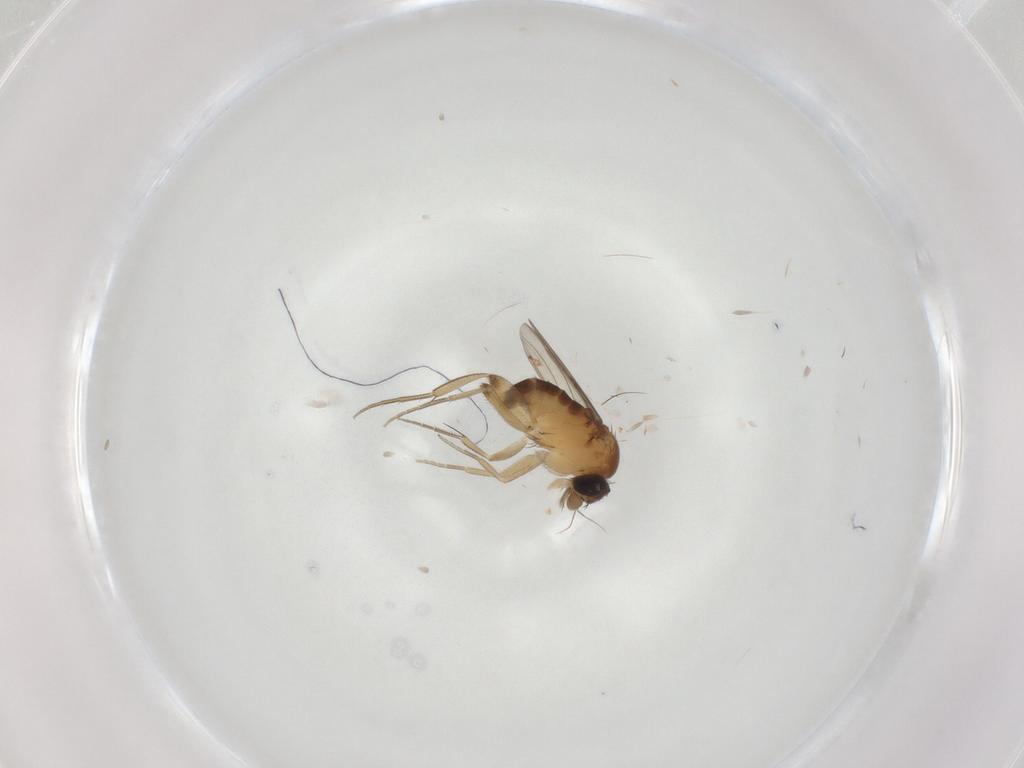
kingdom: Animalia
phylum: Arthropoda
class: Insecta
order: Diptera
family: Phoridae
